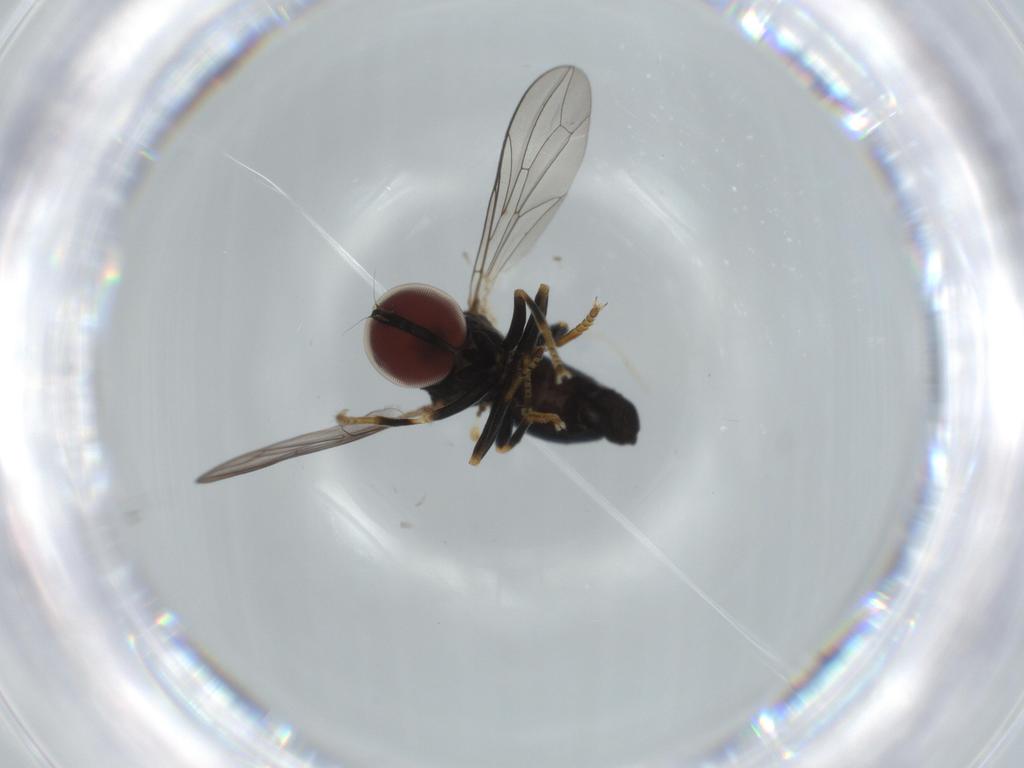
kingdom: Animalia
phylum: Arthropoda
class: Insecta
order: Diptera
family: Pipunculidae
